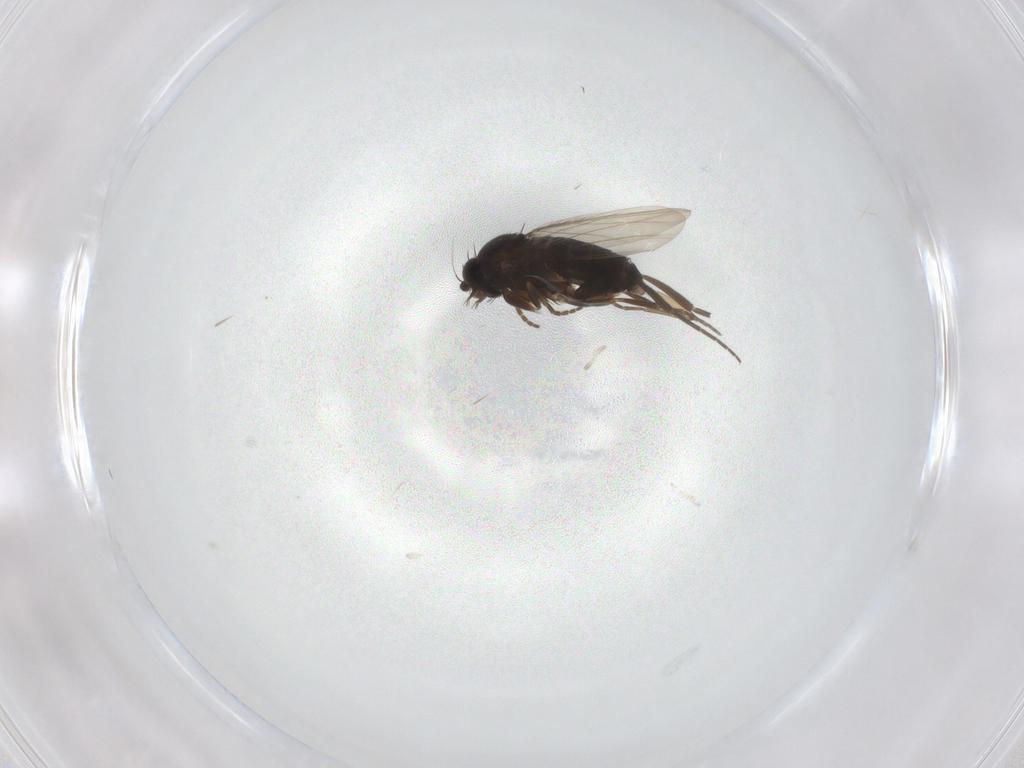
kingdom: Animalia
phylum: Arthropoda
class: Insecta
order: Diptera
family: Phoridae
